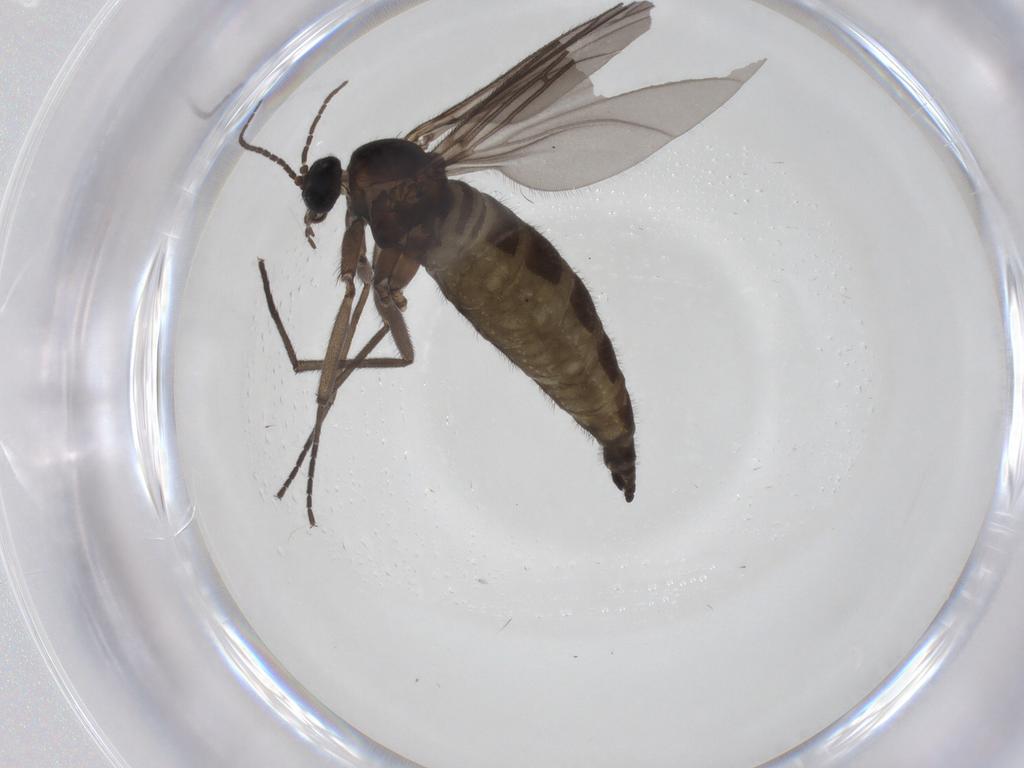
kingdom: Animalia
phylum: Arthropoda
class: Insecta
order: Diptera
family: Sciaridae
